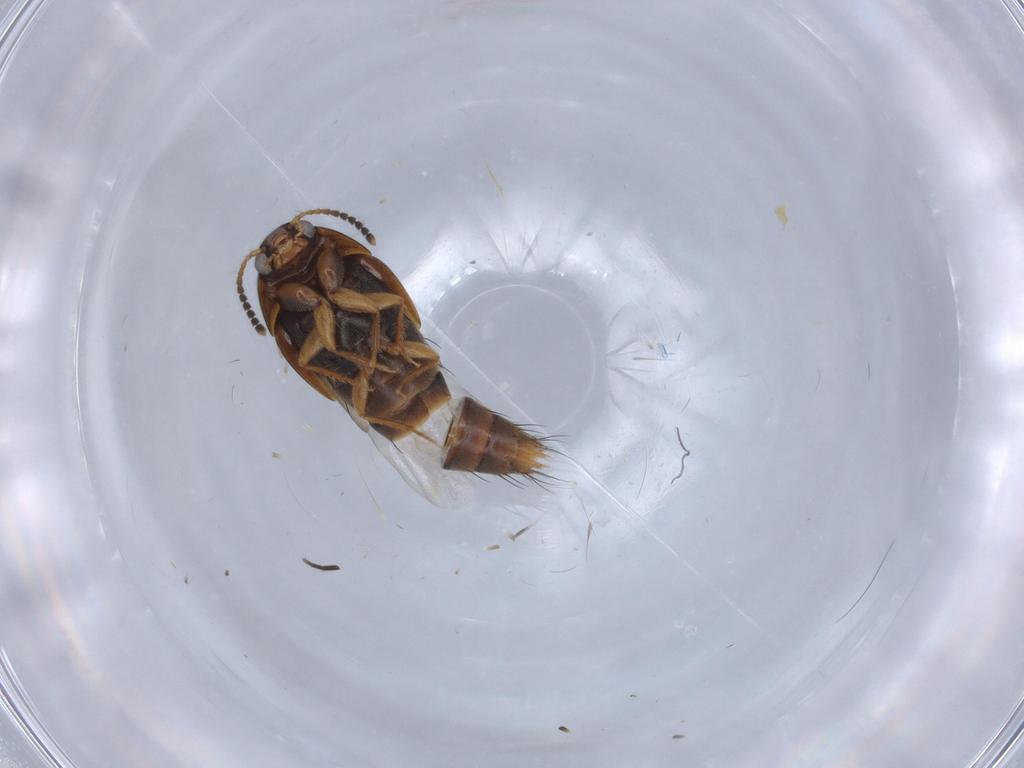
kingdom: Animalia
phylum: Arthropoda
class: Insecta
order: Coleoptera
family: Staphylinidae
